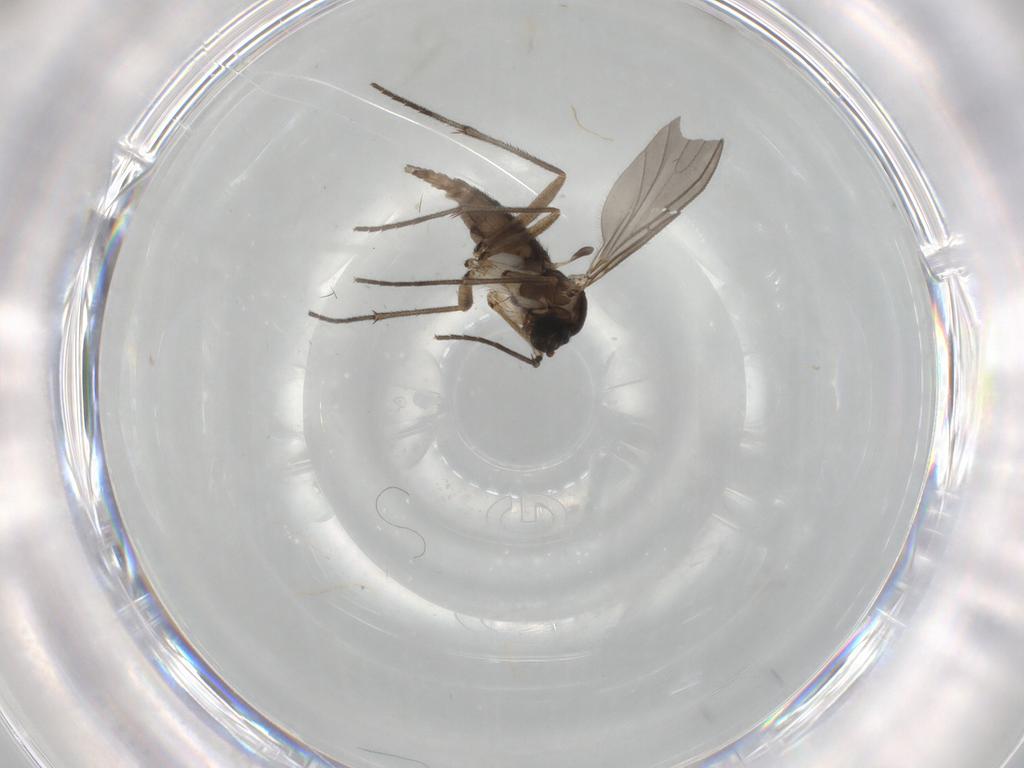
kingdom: Animalia
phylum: Arthropoda
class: Insecta
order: Diptera
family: Sciaridae
